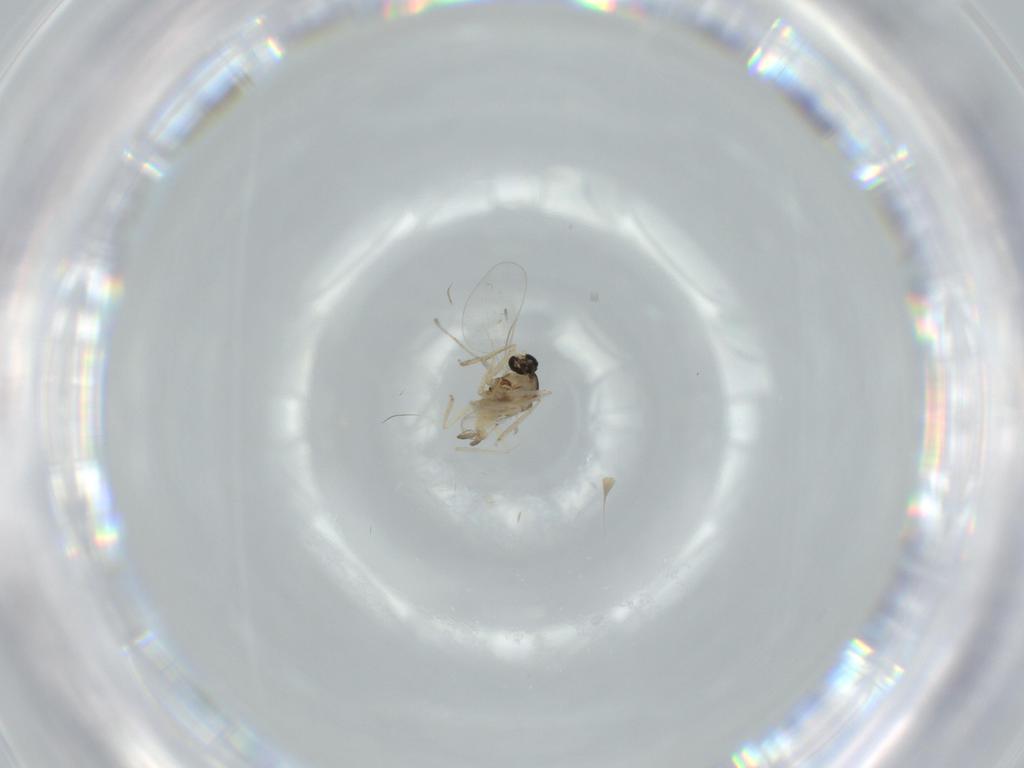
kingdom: Animalia
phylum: Arthropoda
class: Insecta
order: Diptera
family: Cecidomyiidae
